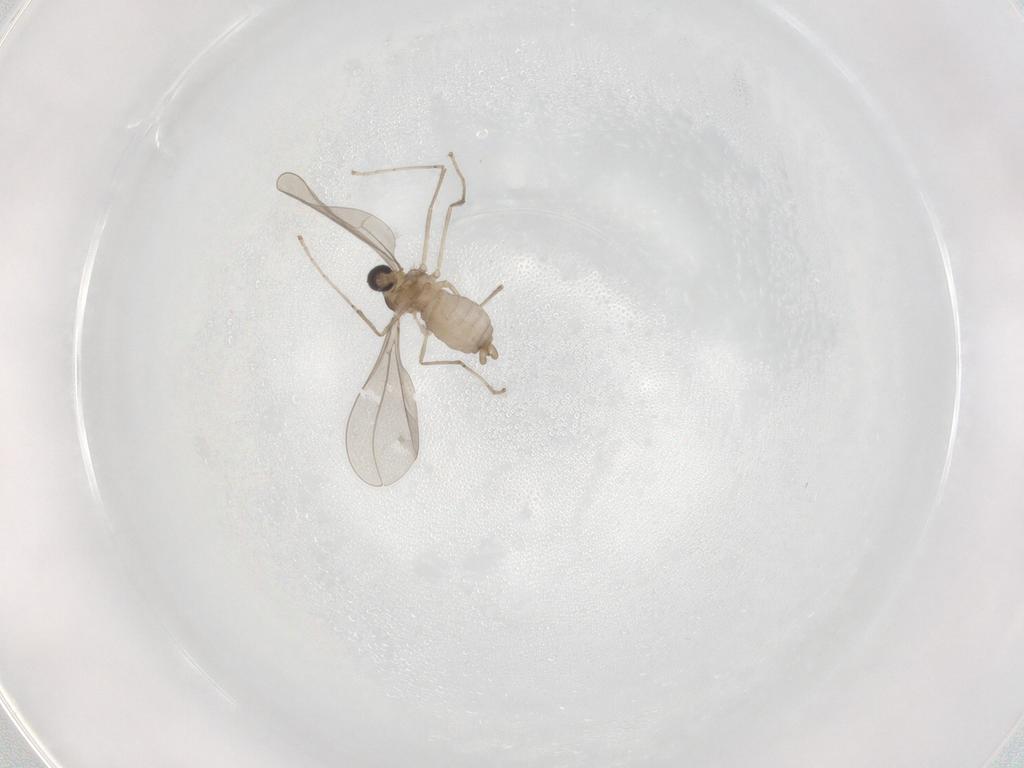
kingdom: Animalia
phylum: Arthropoda
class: Insecta
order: Diptera
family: Cecidomyiidae
